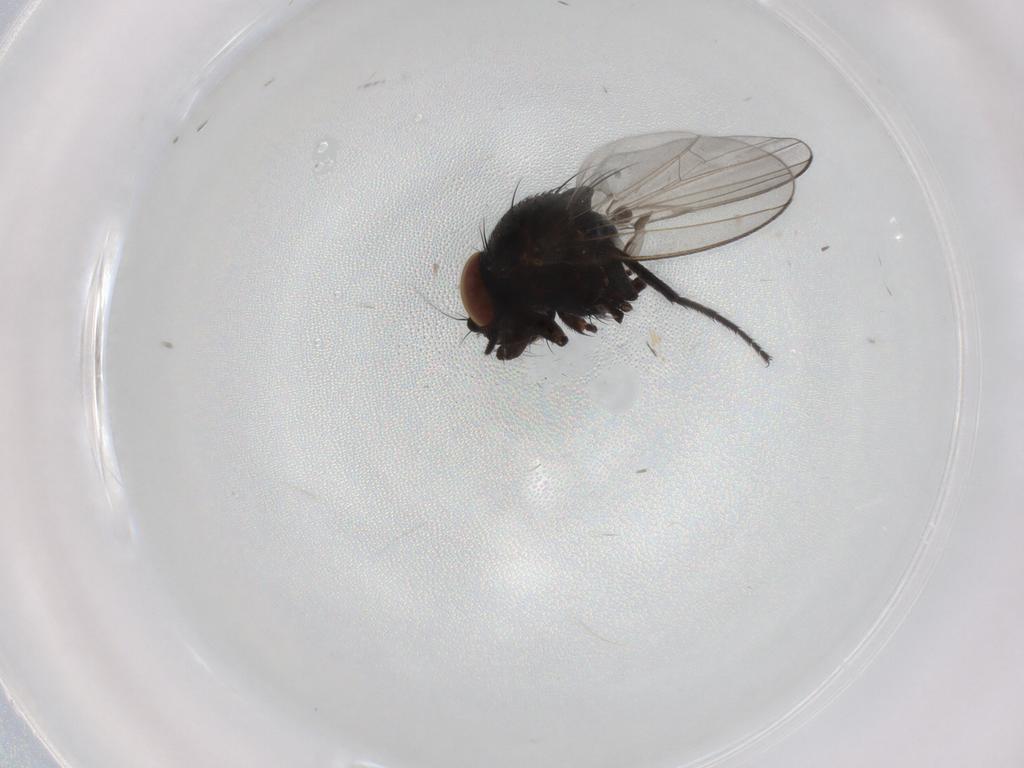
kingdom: Animalia
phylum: Arthropoda
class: Insecta
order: Diptera
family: Milichiidae
